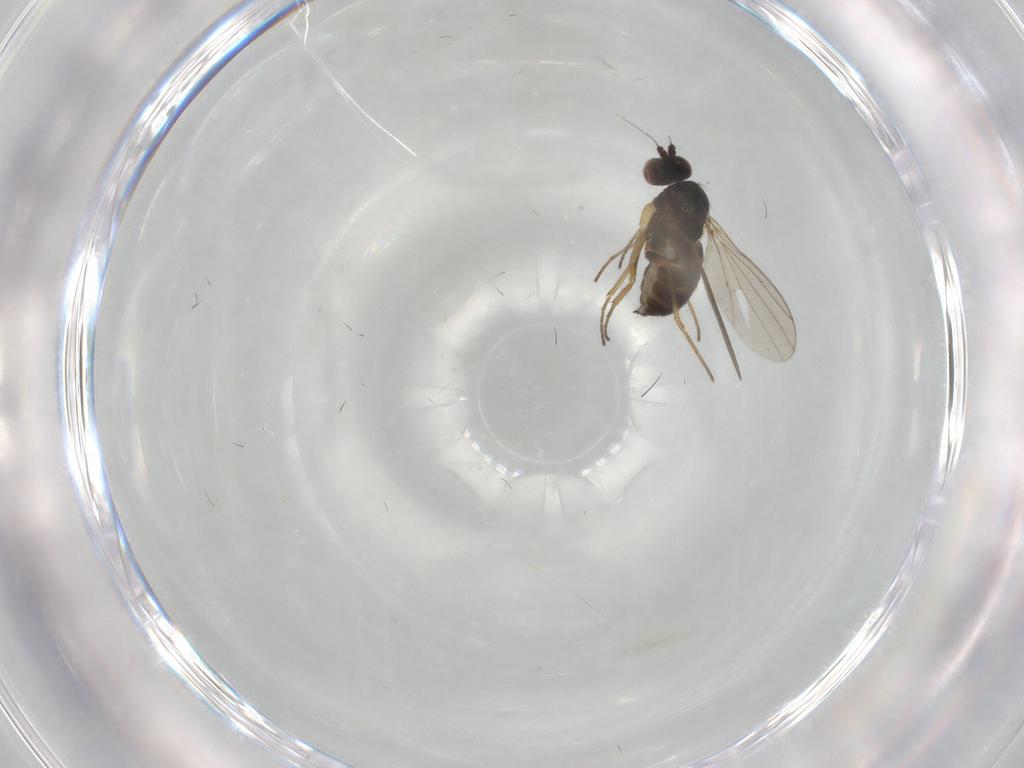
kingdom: Animalia
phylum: Arthropoda
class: Insecta
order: Diptera
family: Dolichopodidae
